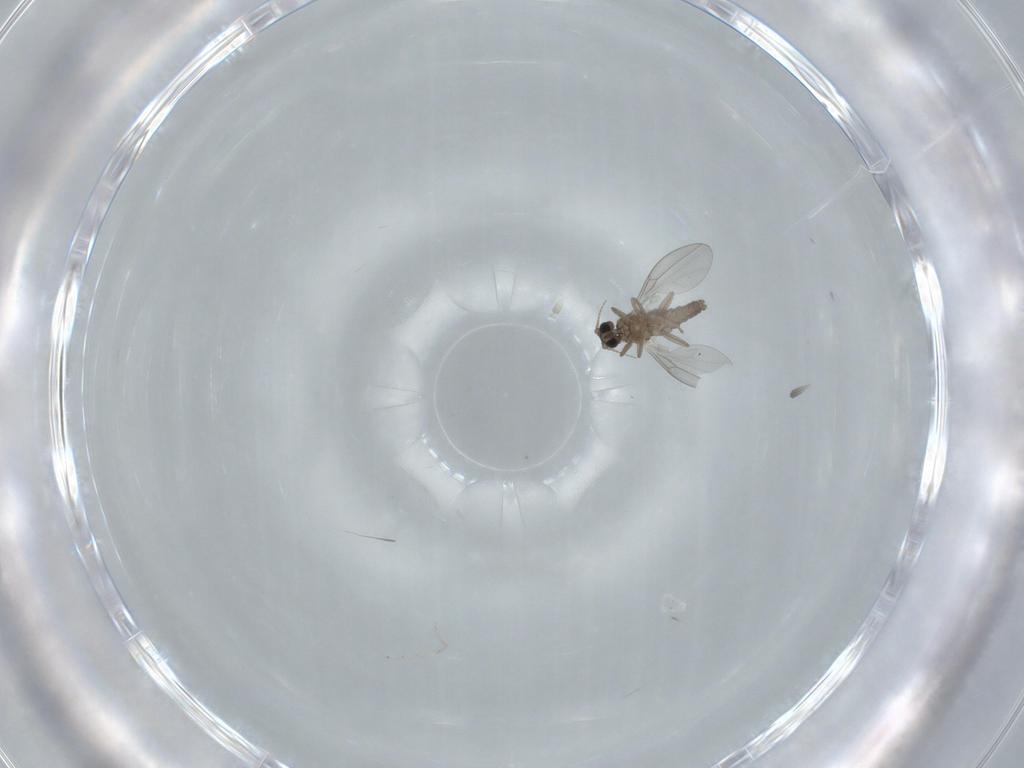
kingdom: Animalia
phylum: Arthropoda
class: Insecta
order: Diptera
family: Cecidomyiidae
